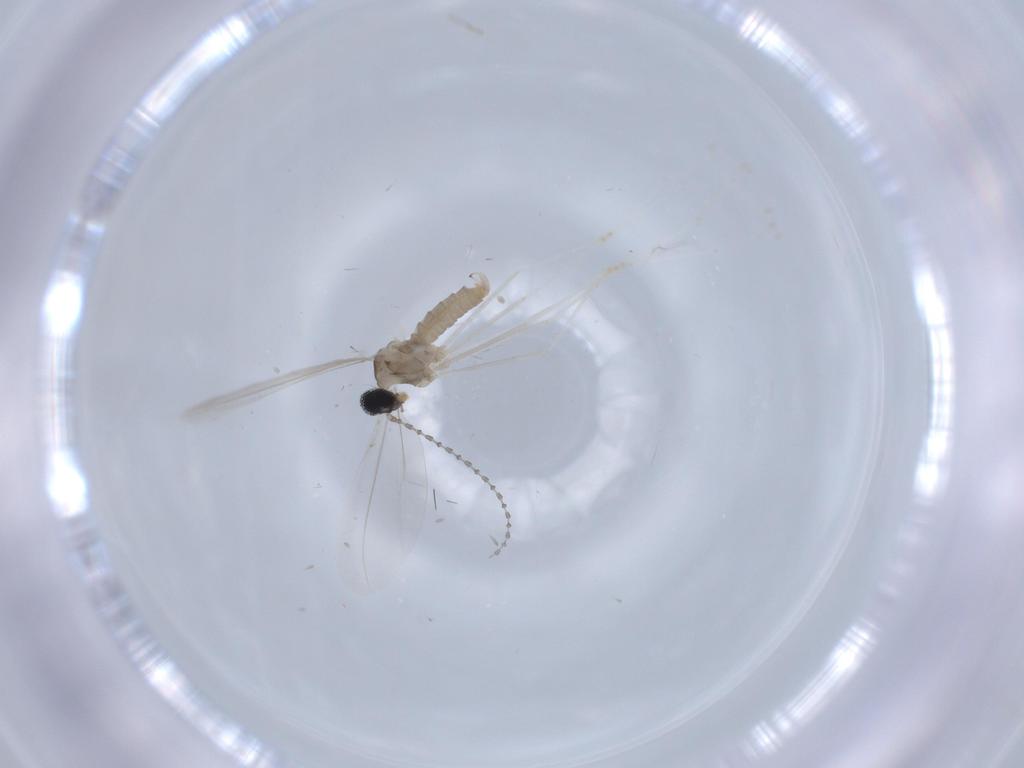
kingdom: Animalia
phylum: Arthropoda
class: Insecta
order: Diptera
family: Cecidomyiidae
